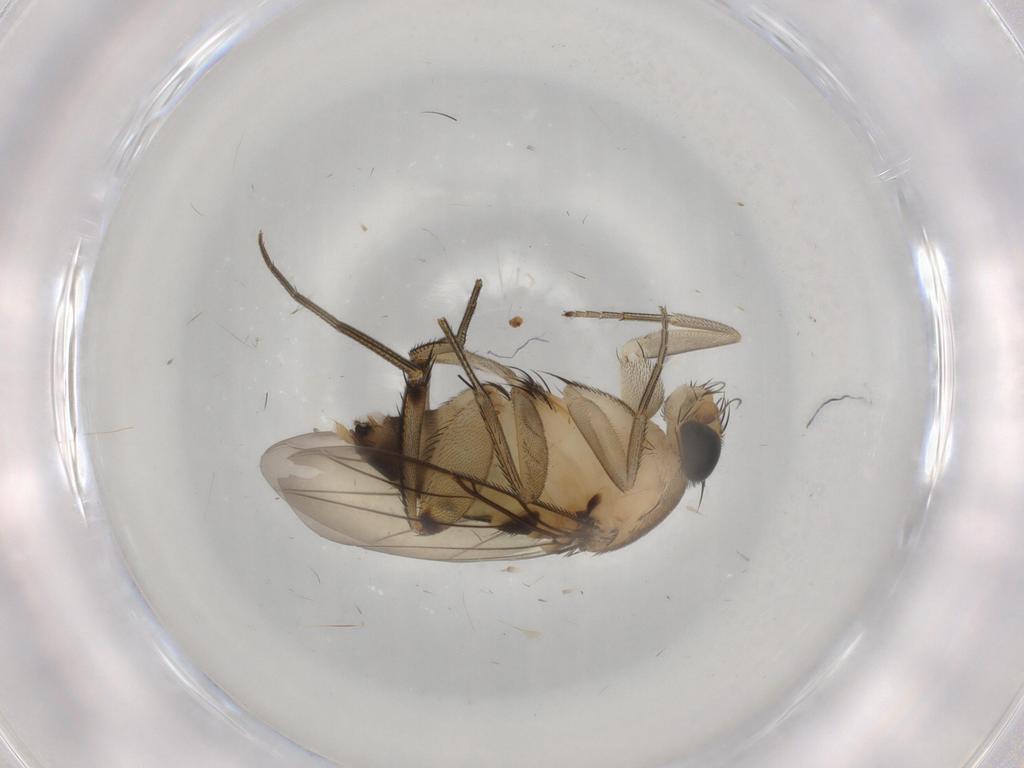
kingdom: Animalia
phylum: Arthropoda
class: Insecta
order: Diptera
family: Phoridae
